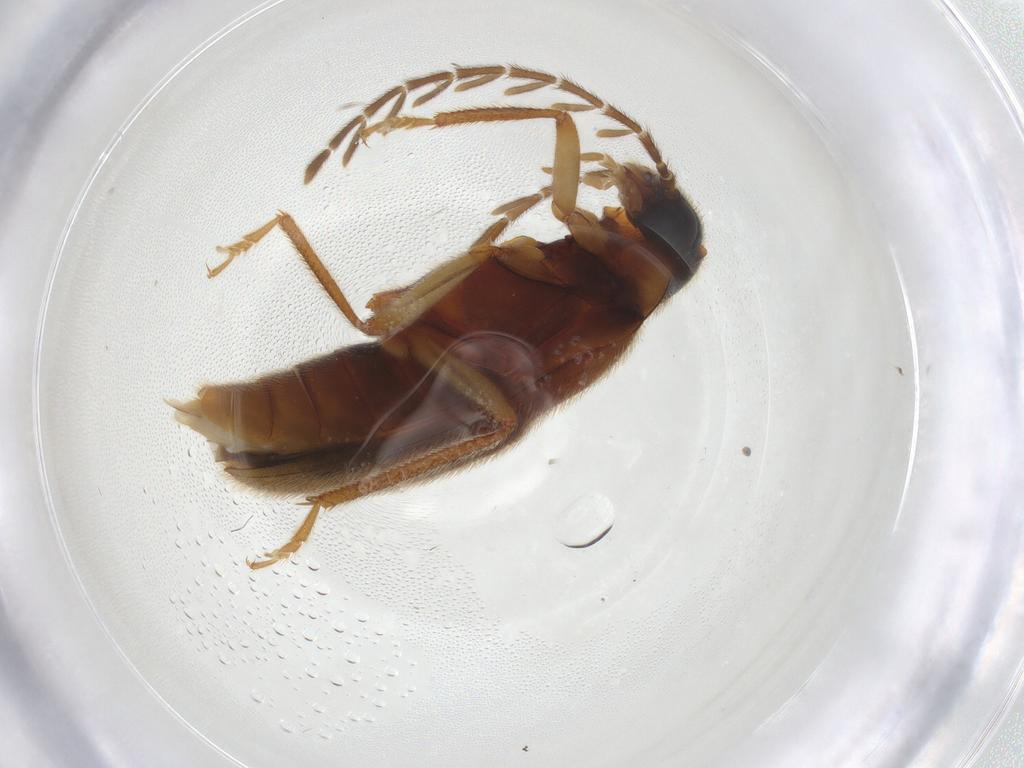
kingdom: Animalia
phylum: Arthropoda
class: Insecta
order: Coleoptera
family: Ptilodactylidae
